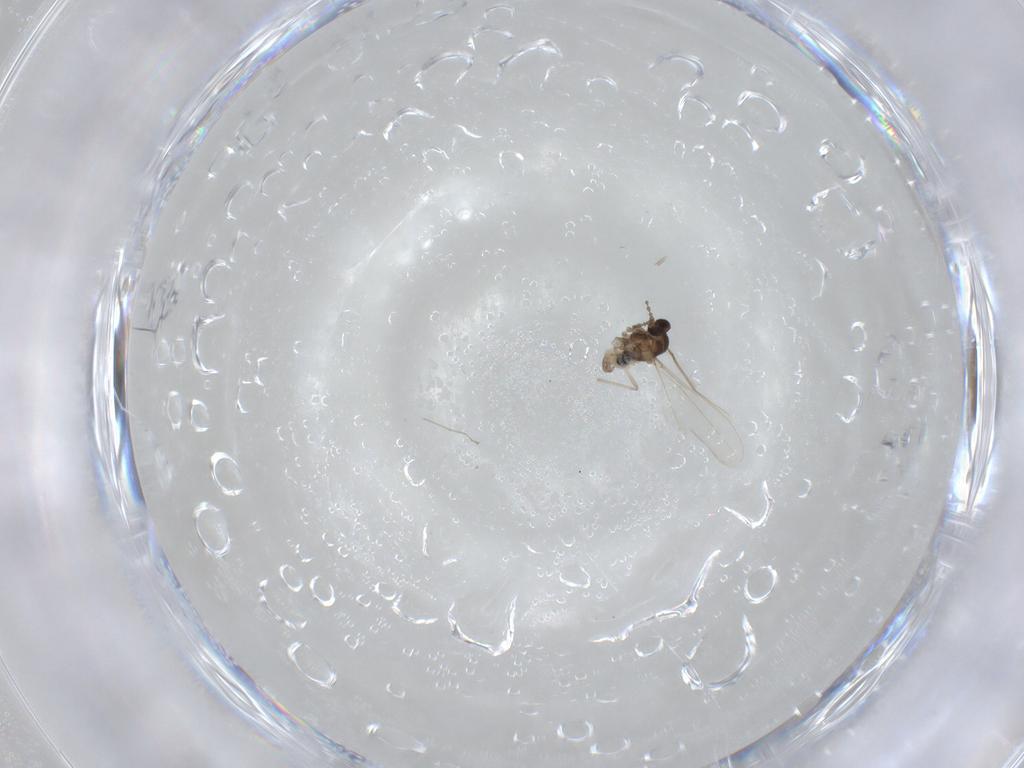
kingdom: Animalia
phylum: Arthropoda
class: Insecta
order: Diptera
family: Chloropidae
